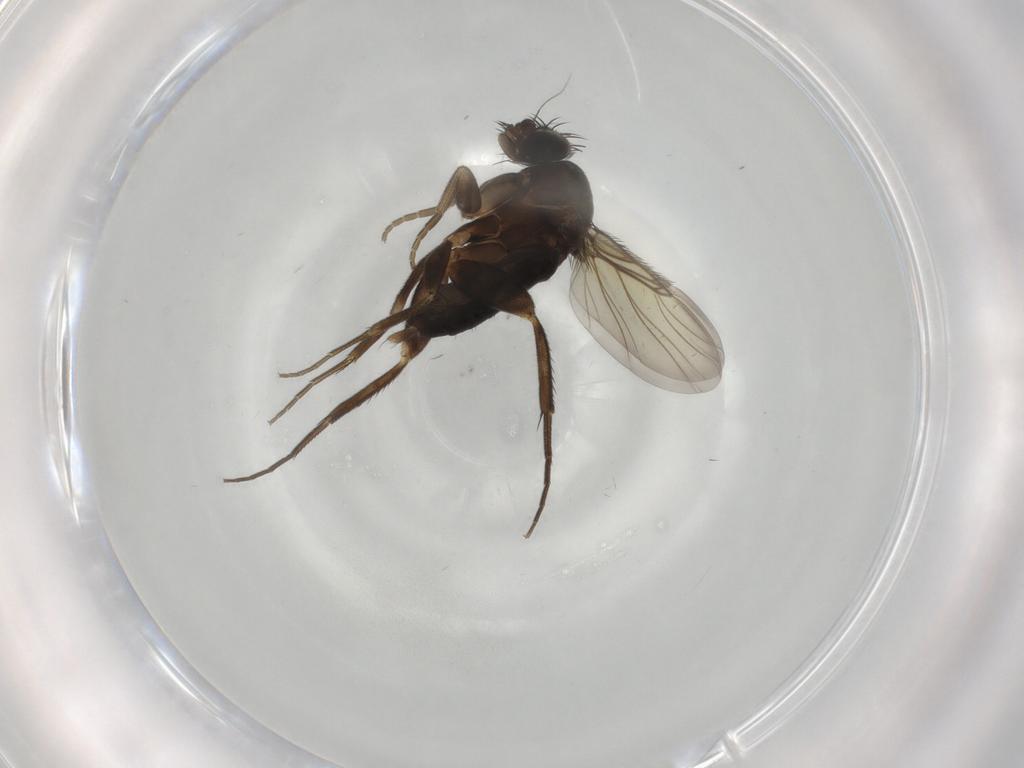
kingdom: Animalia
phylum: Arthropoda
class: Insecta
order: Diptera
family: Phoridae
